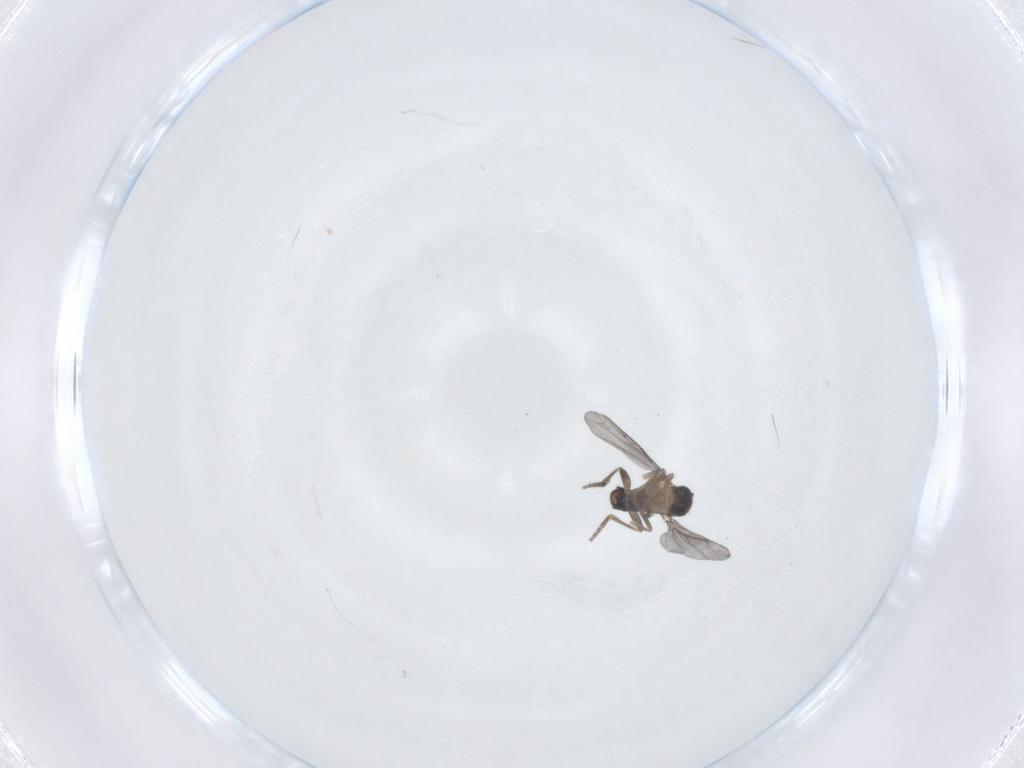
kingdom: Animalia
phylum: Arthropoda
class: Insecta
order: Diptera
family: Phoridae
